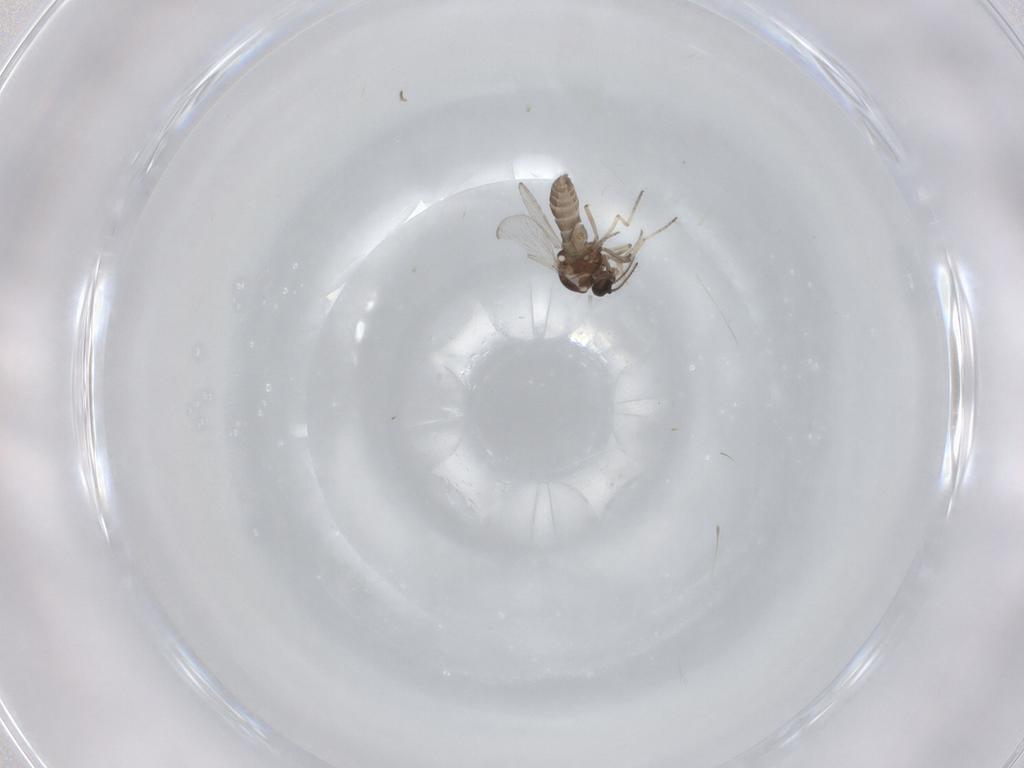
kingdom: Animalia
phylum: Arthropoda
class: Insecta
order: Diptera
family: Ceratopogonidae
